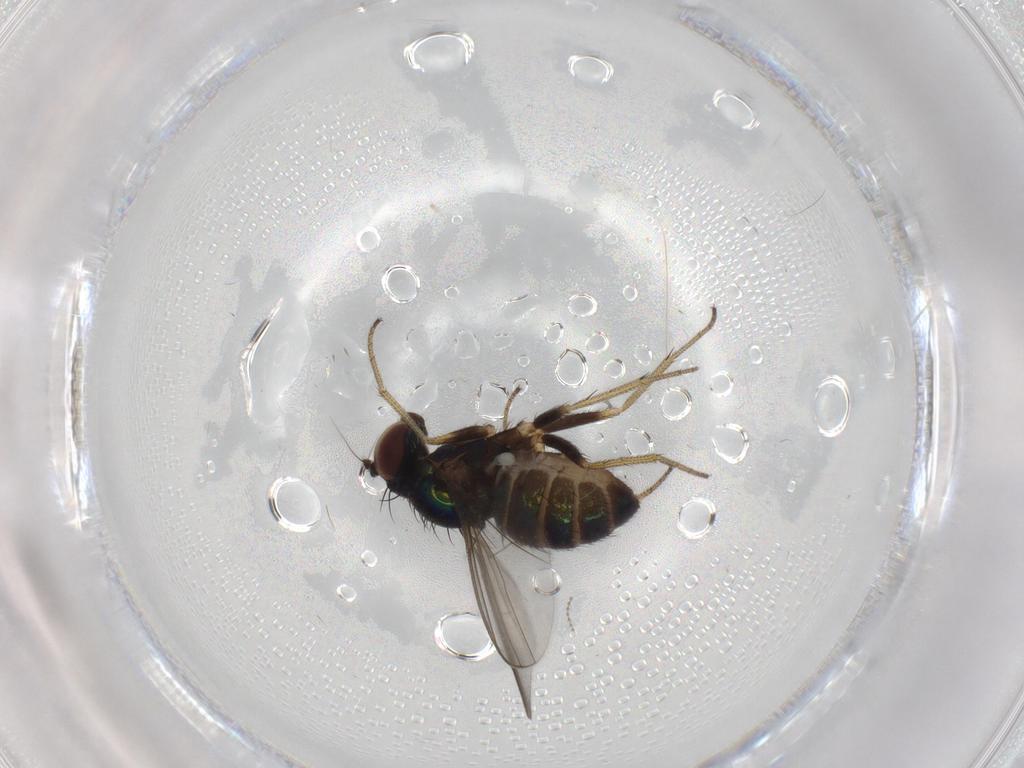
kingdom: Animalia
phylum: Arthropoda
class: Insecta
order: Diptera
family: Dolichopodidae
